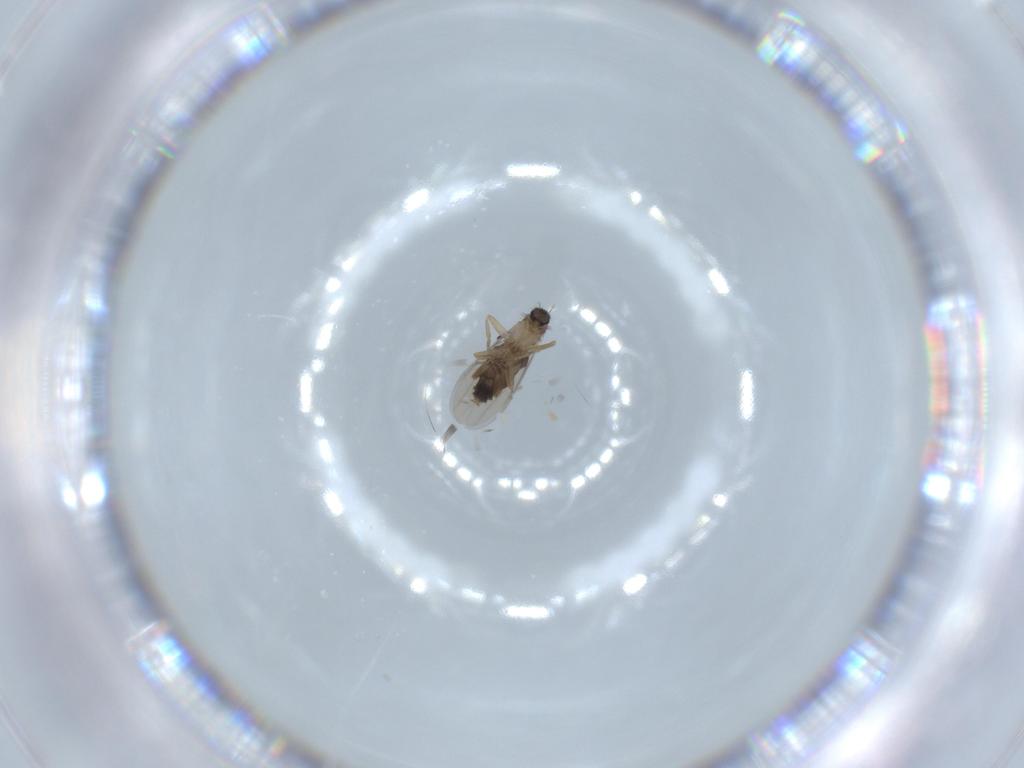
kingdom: Animalia
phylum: Arthropoda
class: Insecta
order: Diptera
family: Phoridae
